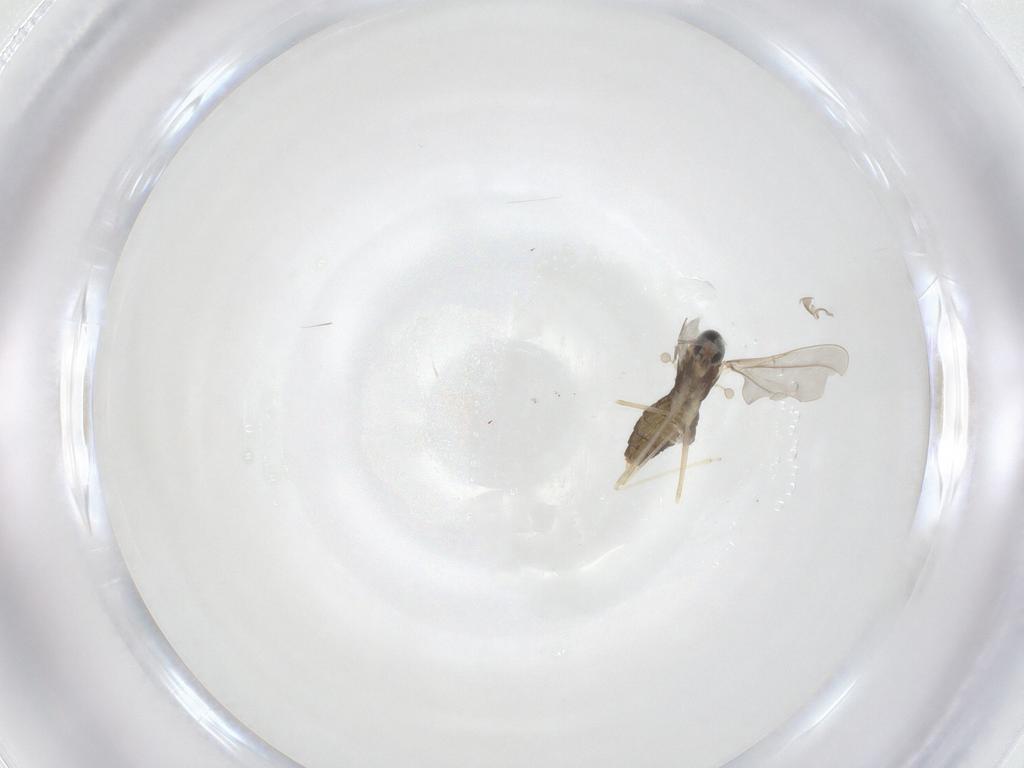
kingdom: Animalia
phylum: Arthropoda
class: Insecta
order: Diptera
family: Cecidomyiidae
